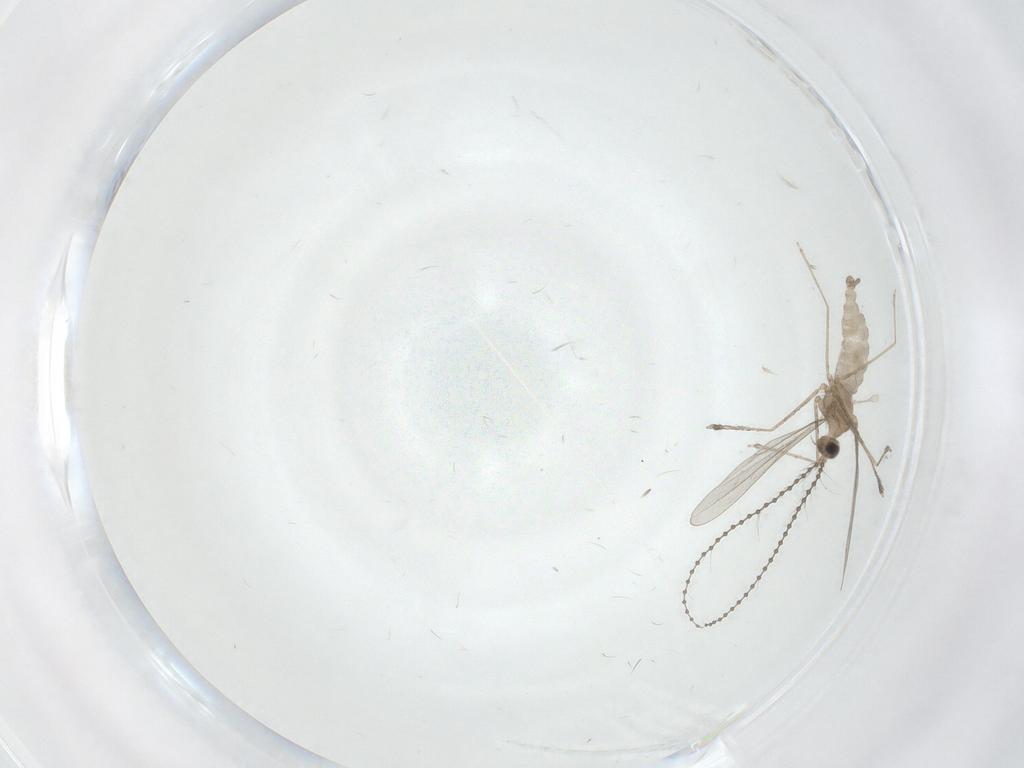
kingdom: Animalia
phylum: Arthropoda
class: Insecta
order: Diptera
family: Cecidomyiidae
